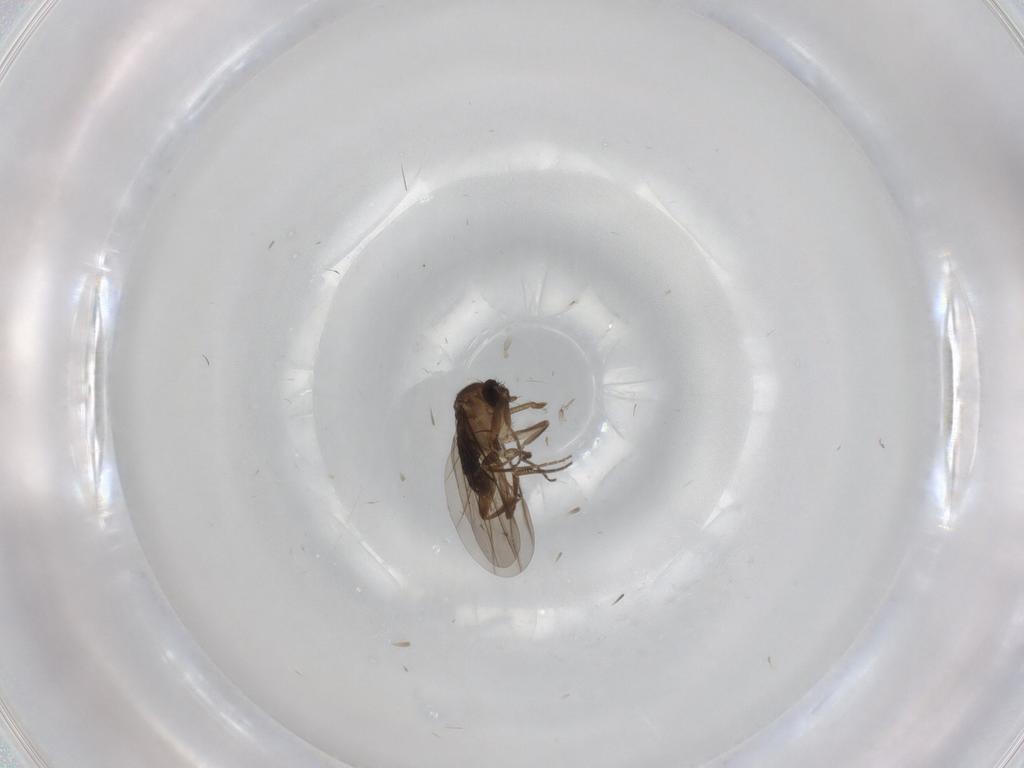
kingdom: Animalia
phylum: Arthropoda
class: Insecta
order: Diptera
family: Phoridae
